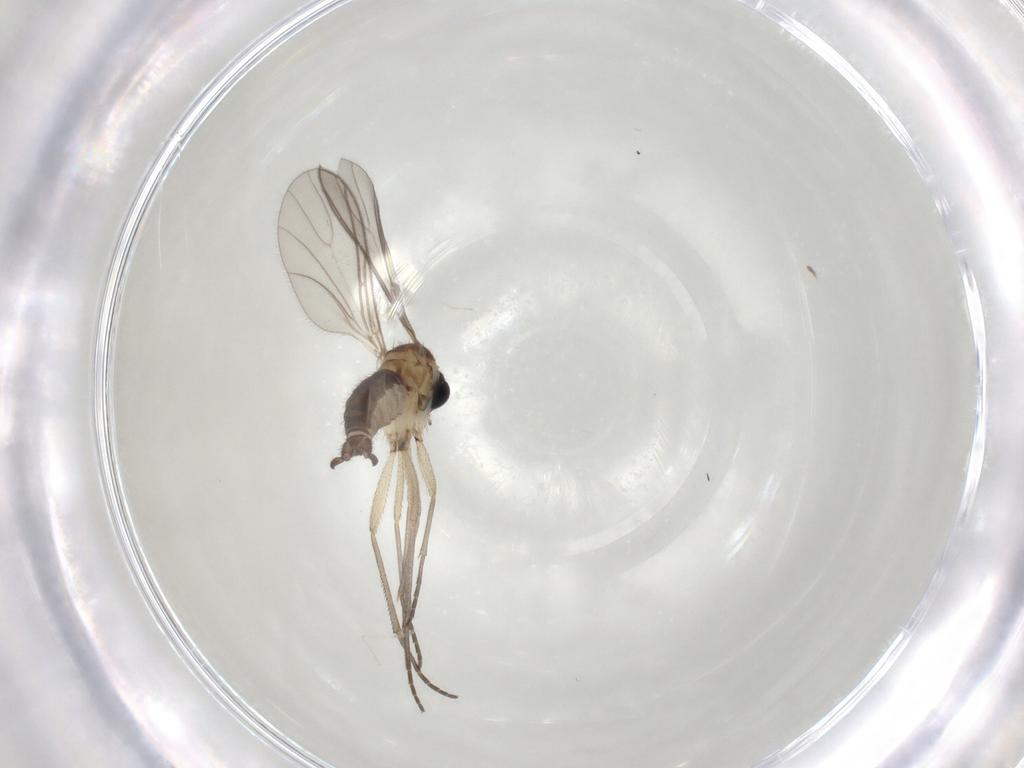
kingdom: Animalia
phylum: Arthropoda
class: Insecta
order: Diptera
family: Sciaridae
